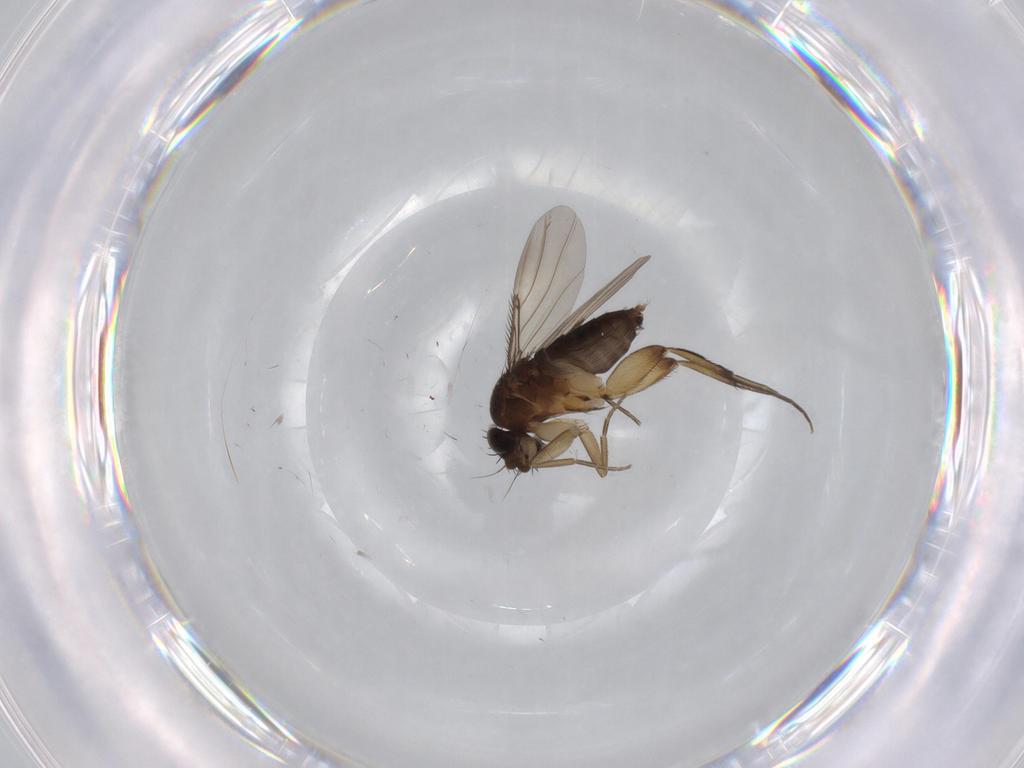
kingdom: Animalia
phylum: Arthropoda
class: Insecta
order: Diptera
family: Phoridae
